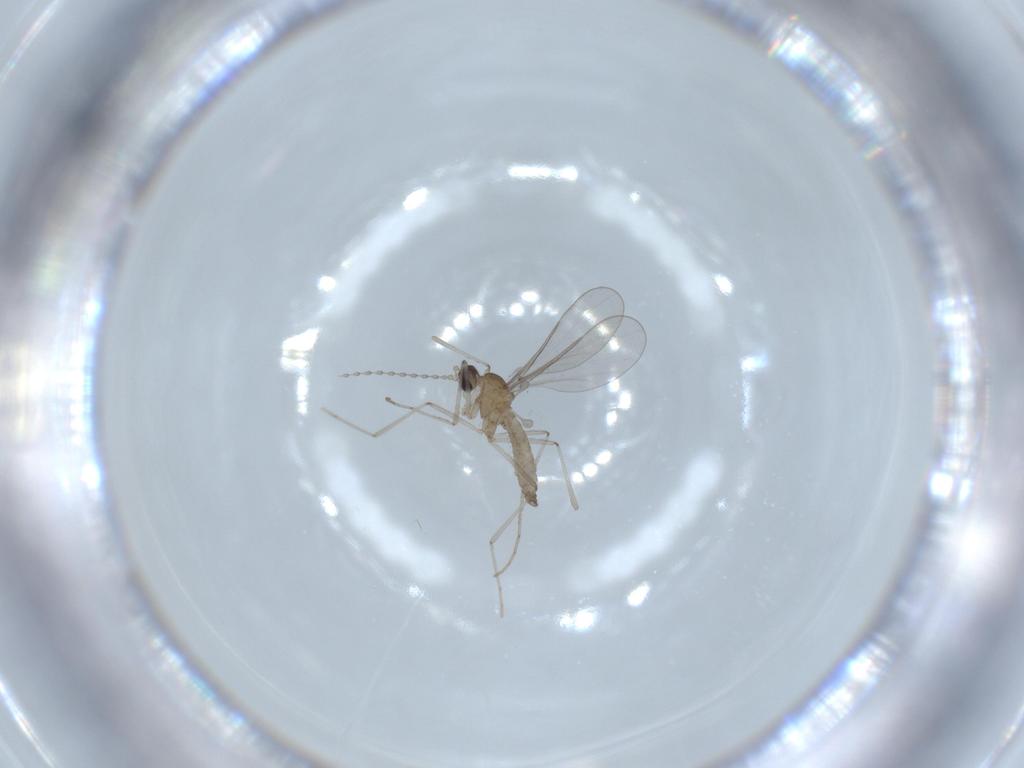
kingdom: Animalia
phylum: Arthropoda
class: Insecta
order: Diptera
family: Cecidomyiidae
